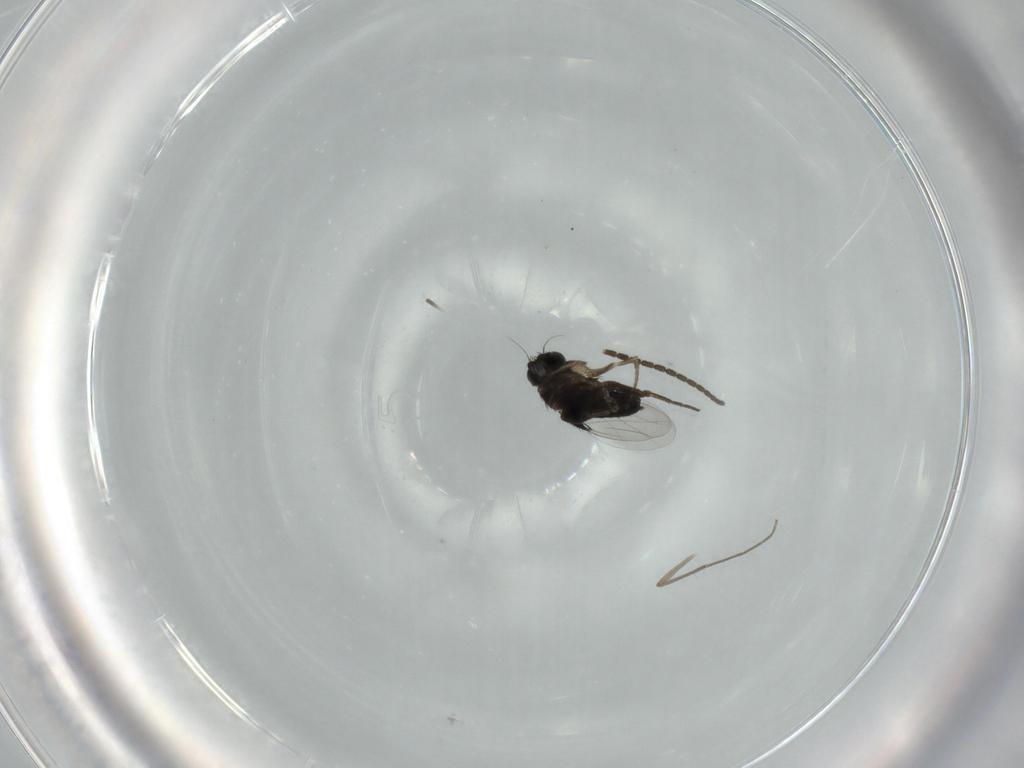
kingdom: Animalia
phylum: Arthropoda
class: Insecta
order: Diptera
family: Phoridae
